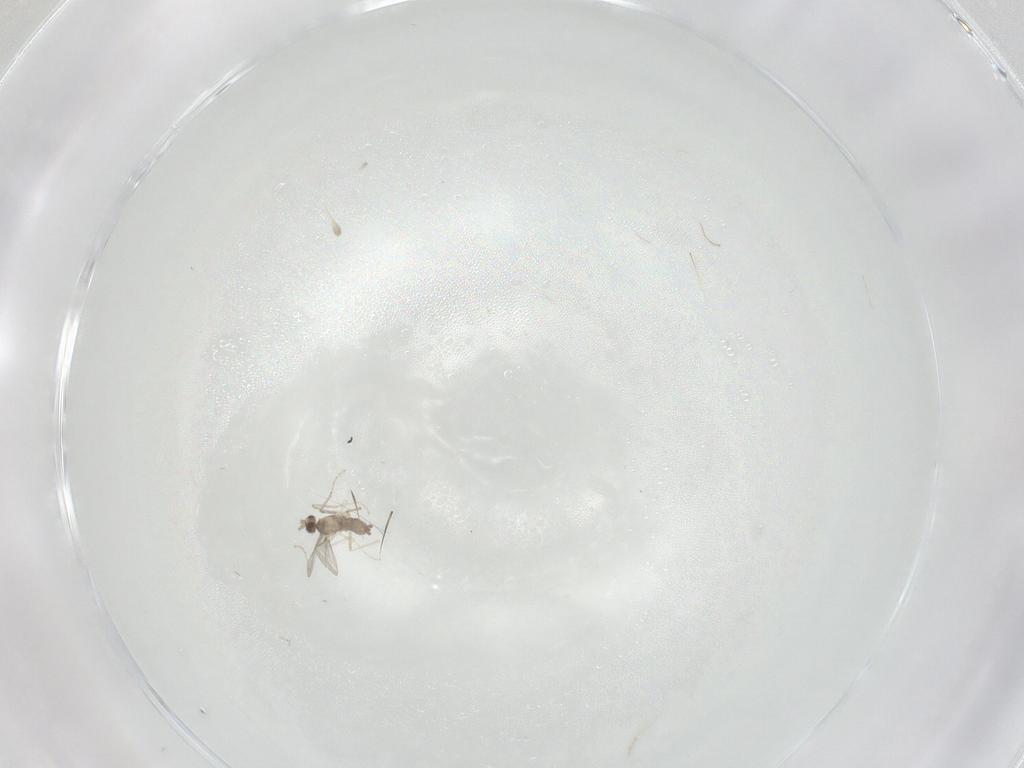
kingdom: Animalia
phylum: Arthropoda
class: Insecta
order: Diptera
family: Cecidomyiidae
